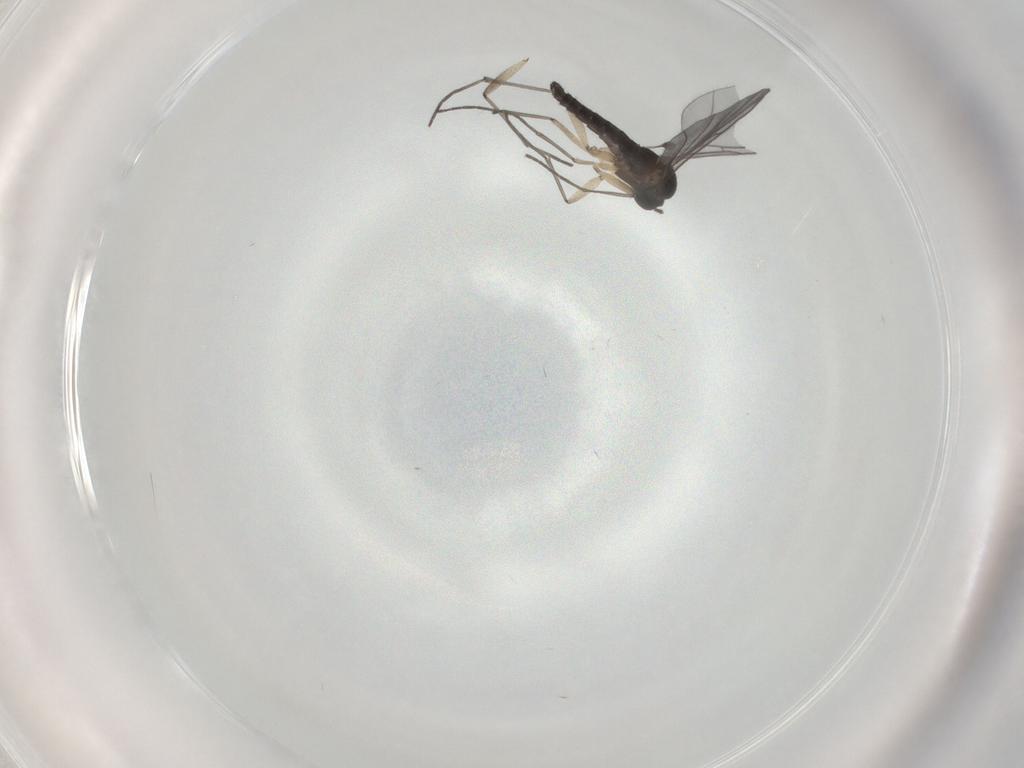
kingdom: Animalia
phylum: Arthropoda
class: Insecta
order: Diptera
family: Sciaridae
